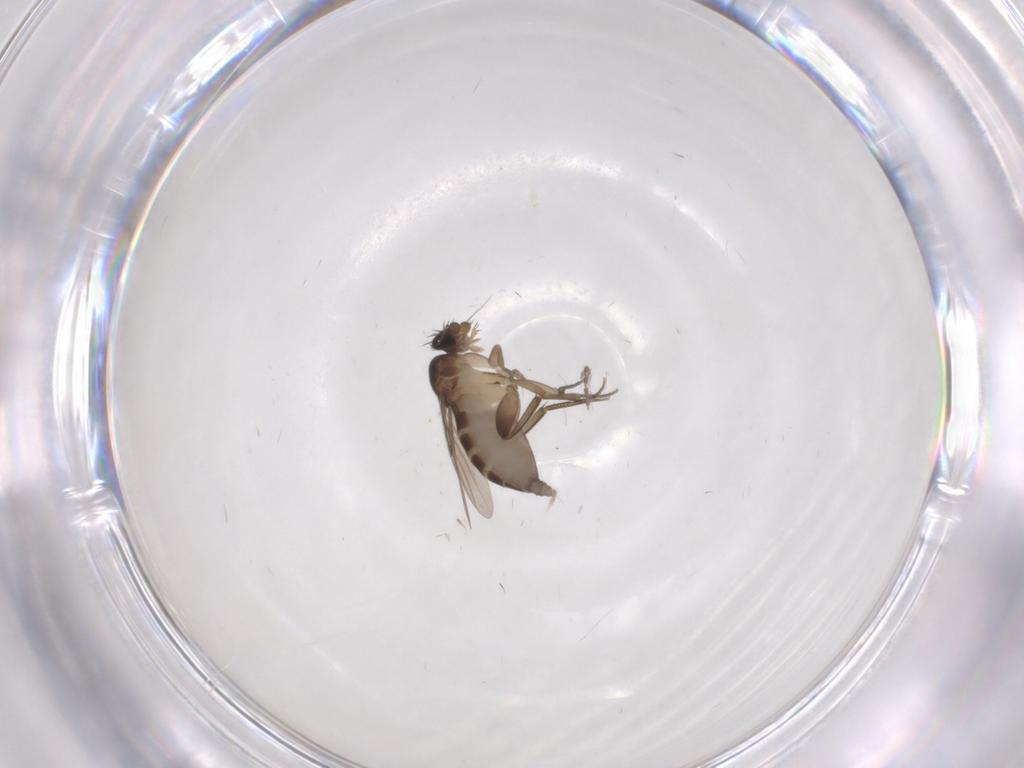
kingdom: Animalia
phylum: Arthropoda
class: Insecta
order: Diptera
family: Phoridae
